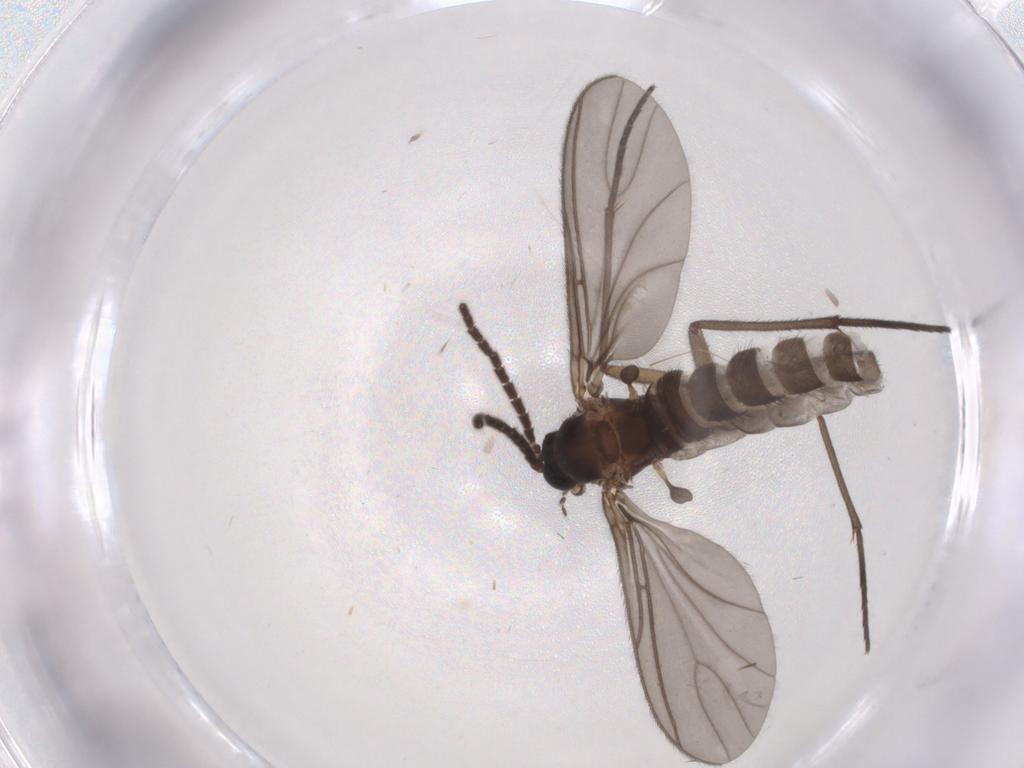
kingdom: Animalia
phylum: Arthropoda
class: Insecta
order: Diptera
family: Sciaridae
